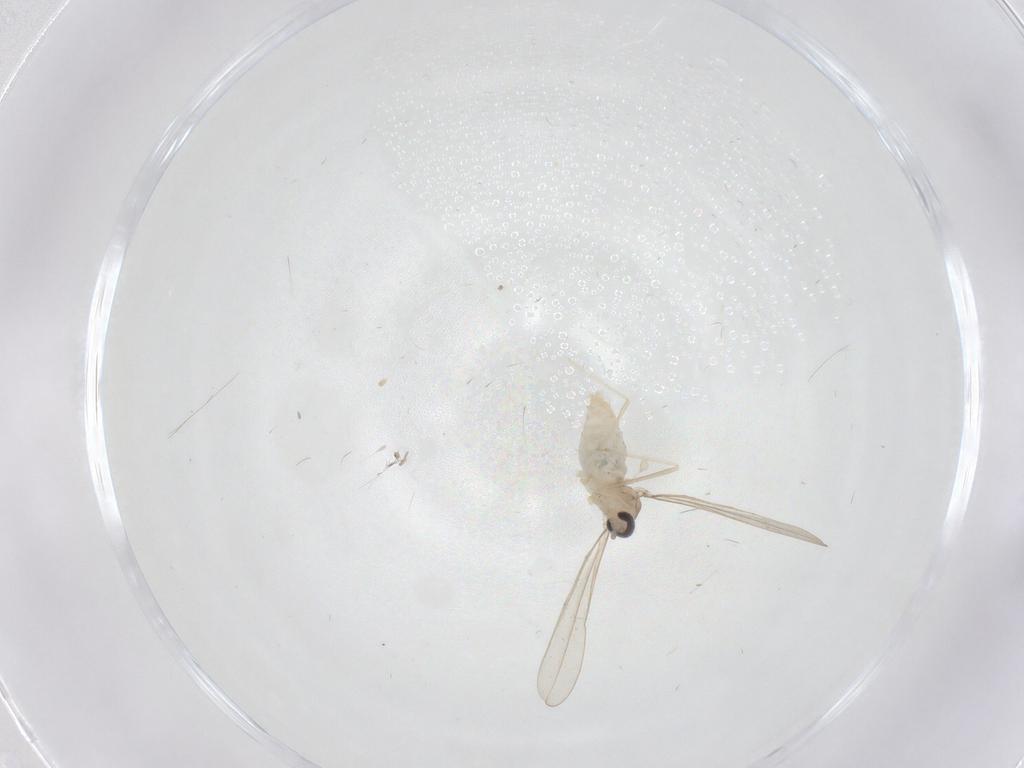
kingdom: Animalia
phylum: Arthropoda
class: Insecta
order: Diptera
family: Cecidomyiidae
